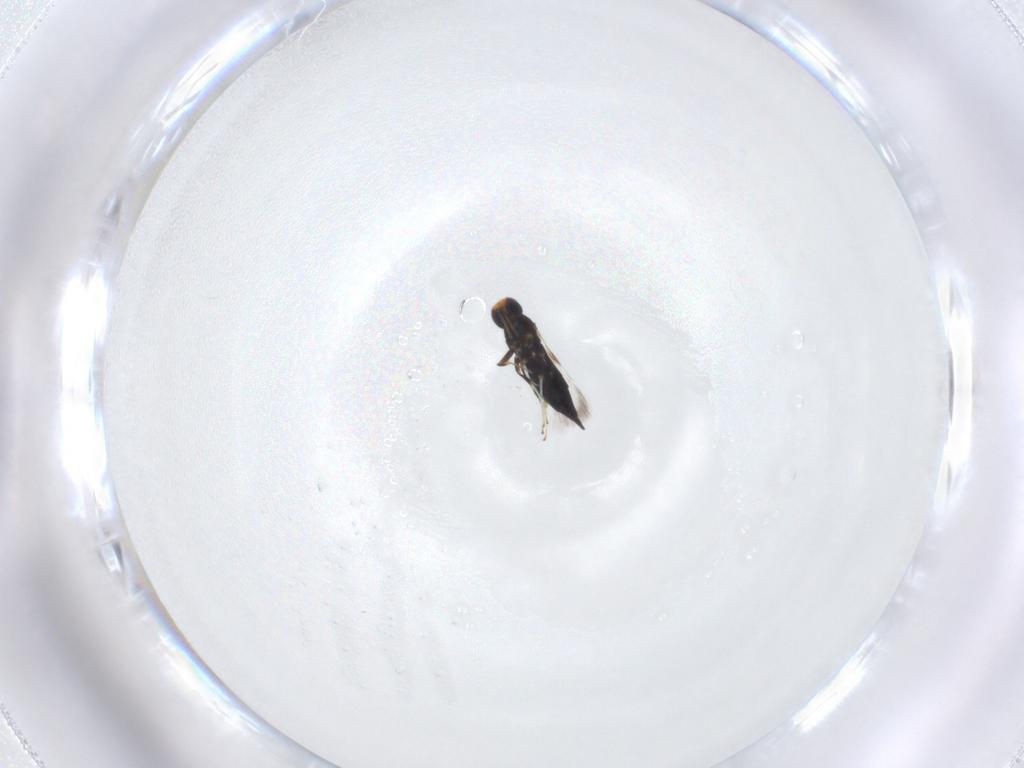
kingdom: Animalia
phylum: Arthropoda
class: Insecta
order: Hymenoptera
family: Signiphoridae
